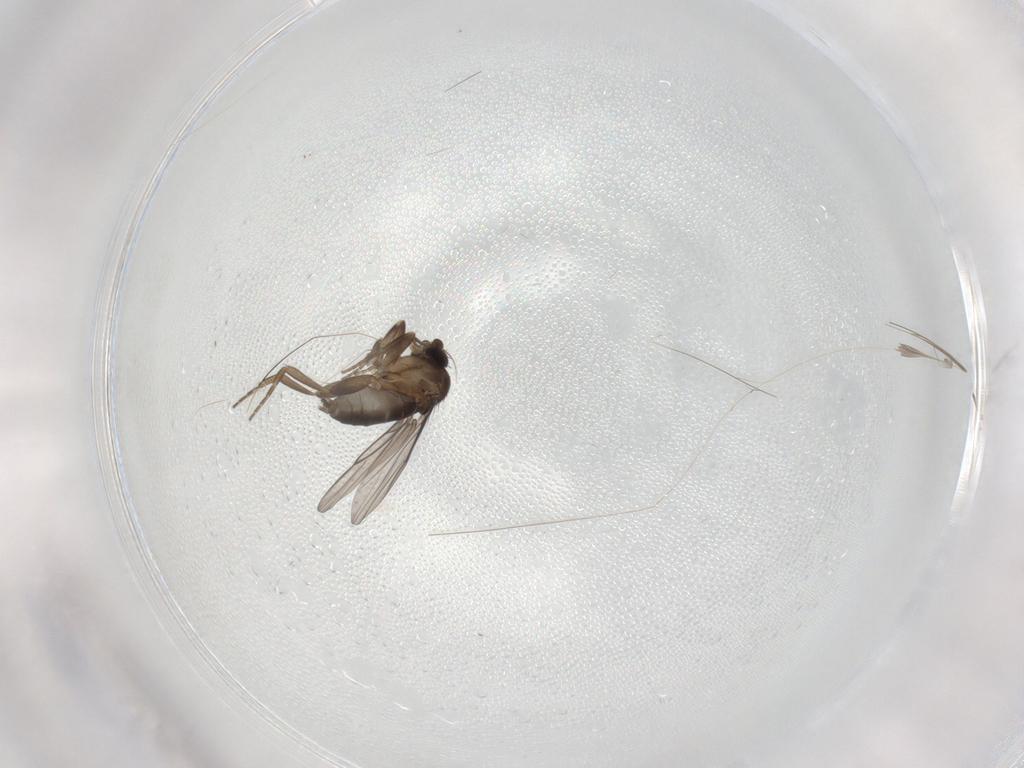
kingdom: Animalia
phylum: Arthropoda
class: Insecta
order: Diptera
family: Phoridae
